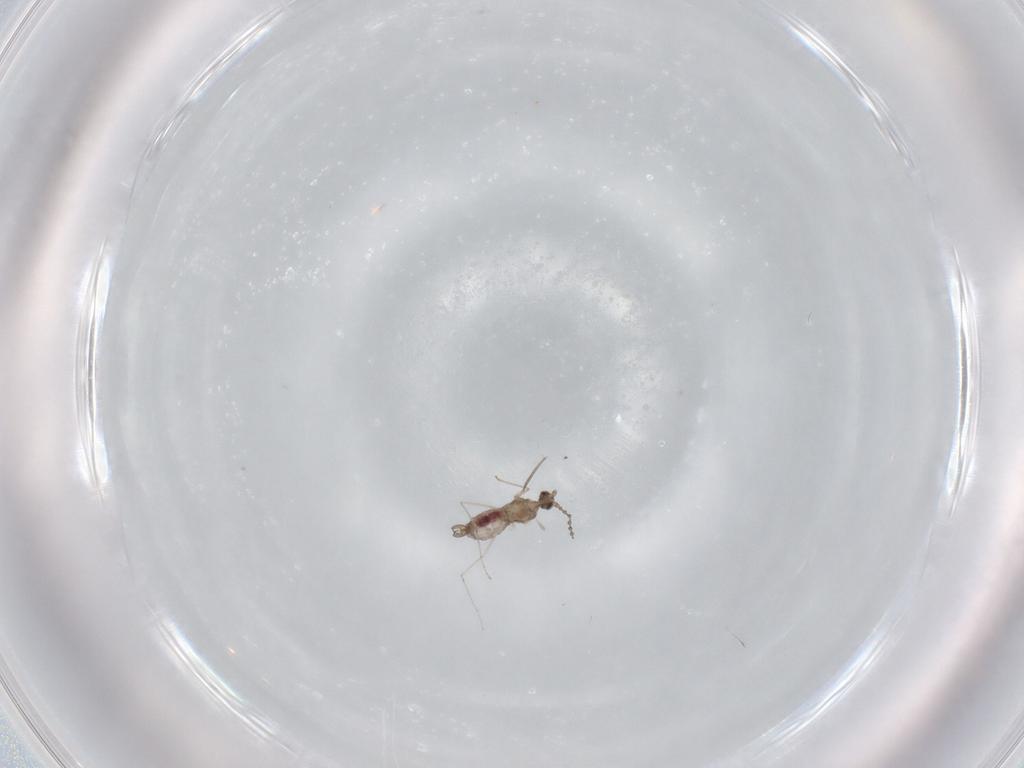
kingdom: Animalia
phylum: Arthropoda
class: Insecta
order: Diptera
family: Cecidomyiidae
